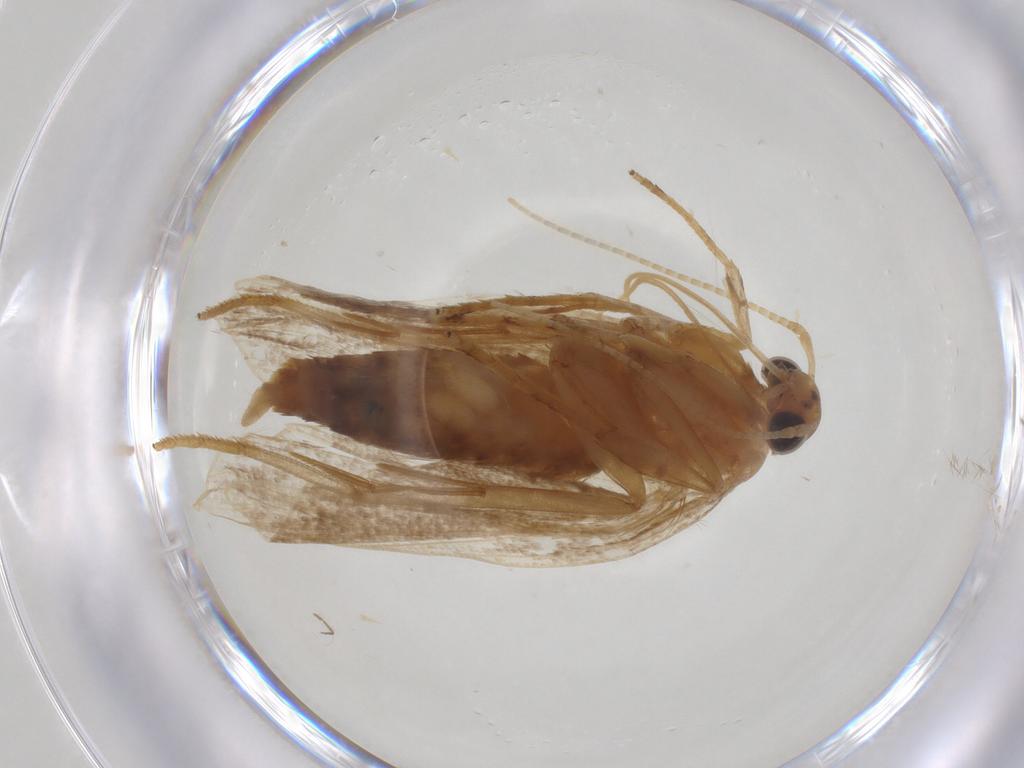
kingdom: Animalia
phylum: Arthropoda
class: Insecta
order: Lepidoptera
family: Lecithoceridae
